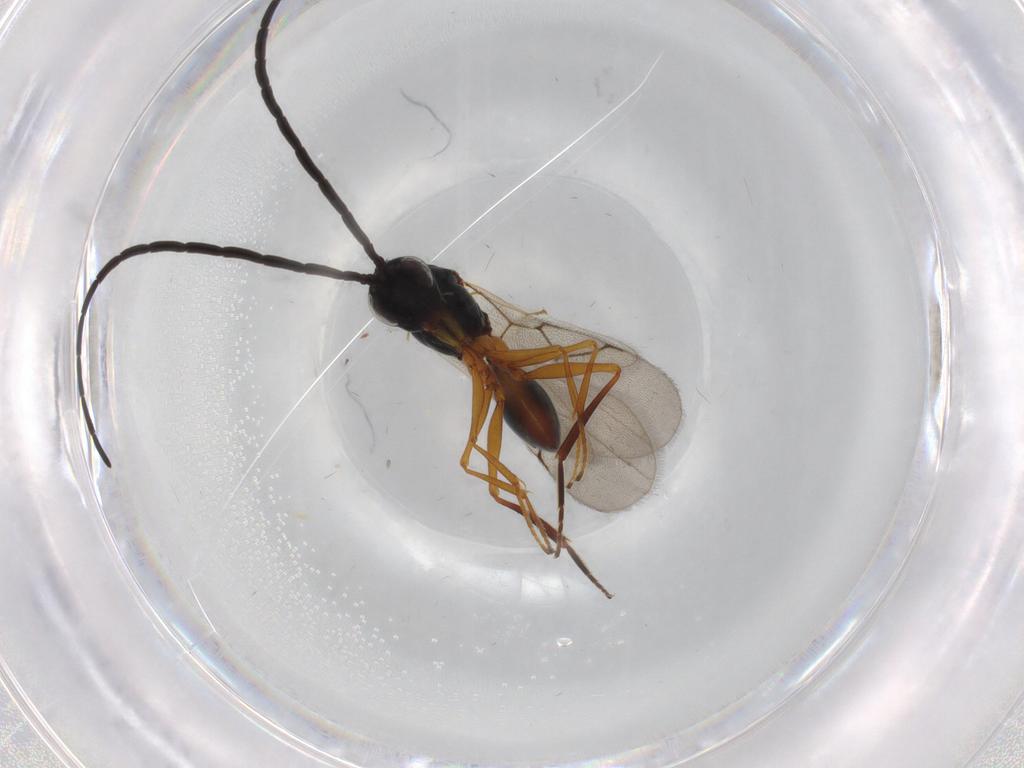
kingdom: Animalia
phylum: Arthropoda
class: Insecta
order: Hymenoptera
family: Figitidae
